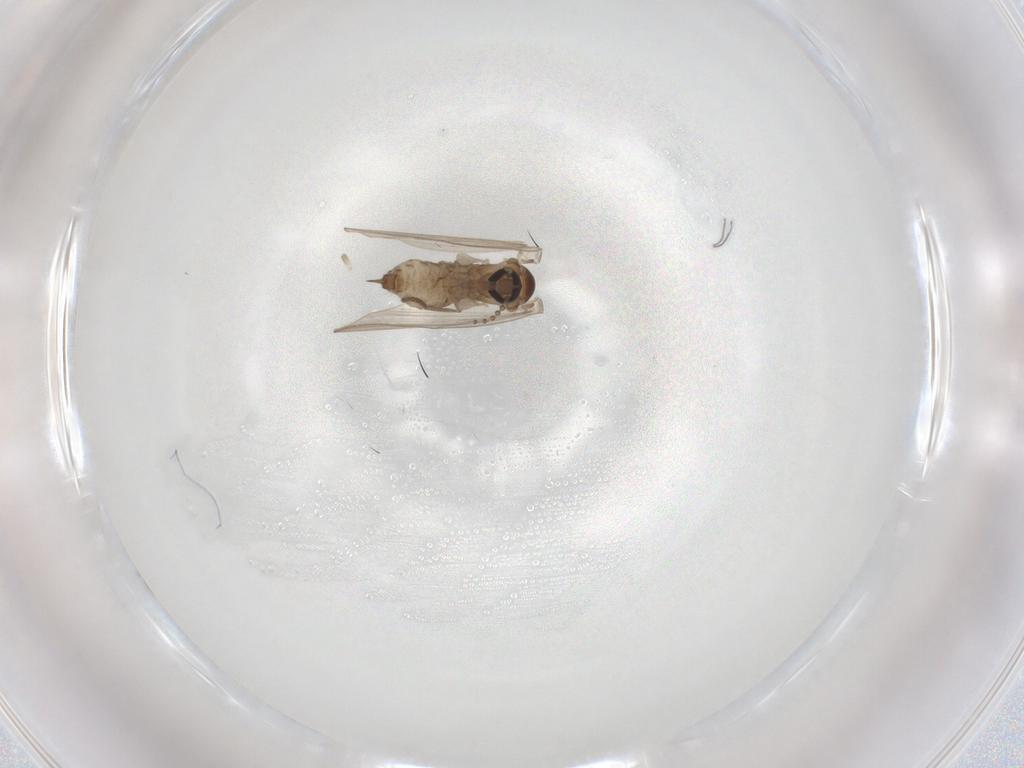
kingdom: Animalia
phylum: Arthropoda
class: Insecta
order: Diptera
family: Psychodidae
